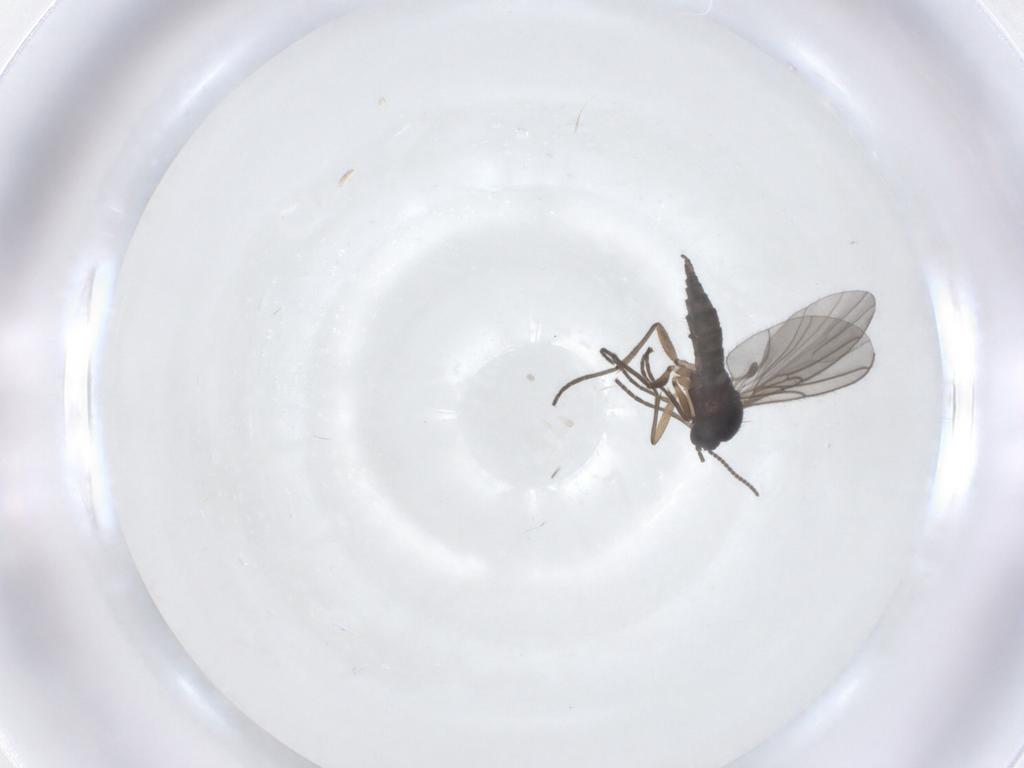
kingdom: Animalia
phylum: Arthropoda
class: Insecta
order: Diptera
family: Sciaridae
